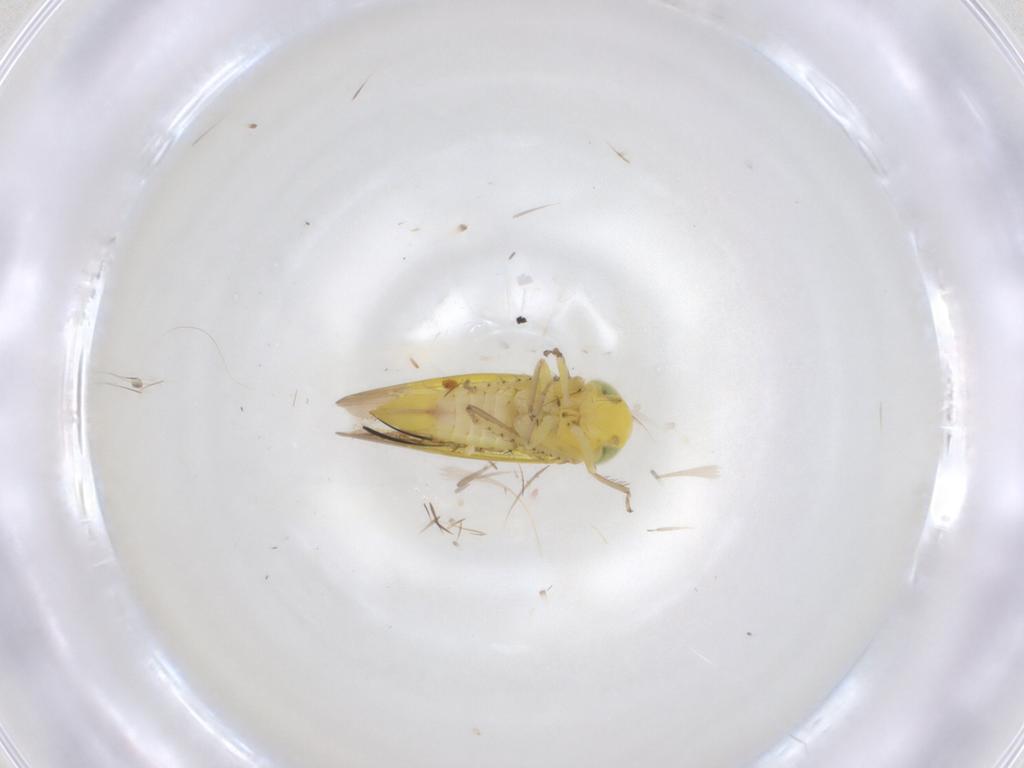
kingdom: Animalia
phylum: Arthropoda
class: Insecta
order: Hemiptera
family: Cicadellidae
